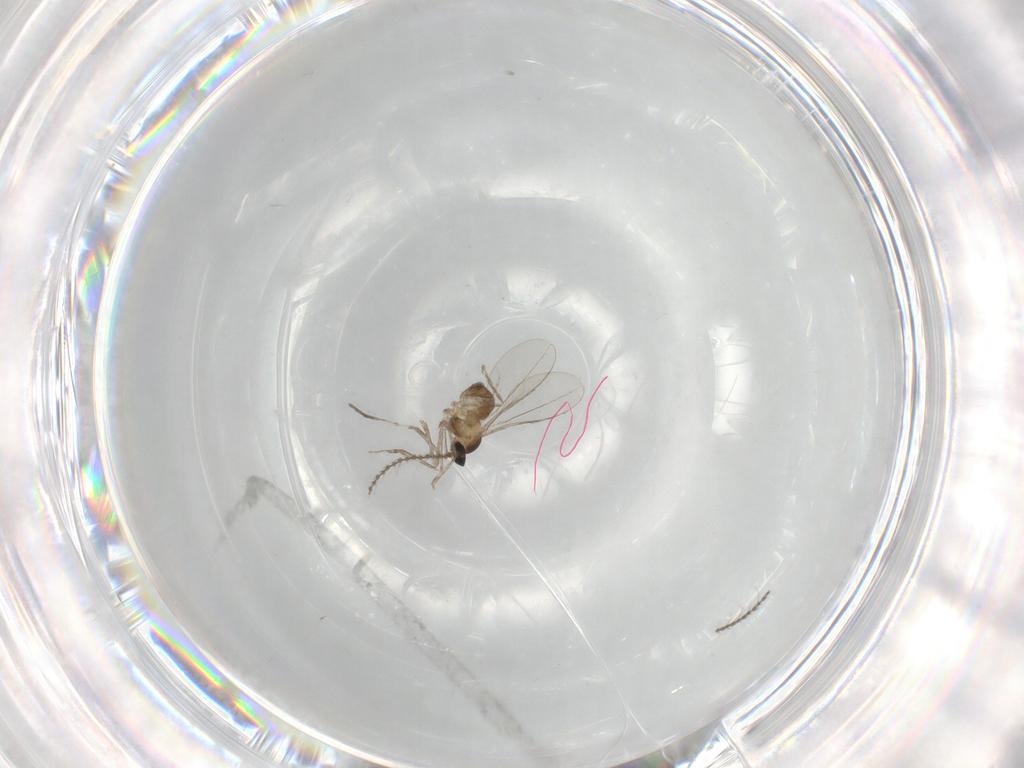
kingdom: Animalia
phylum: Arthropoda
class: Insecta
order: Diptera
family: Cecidomyiidae
